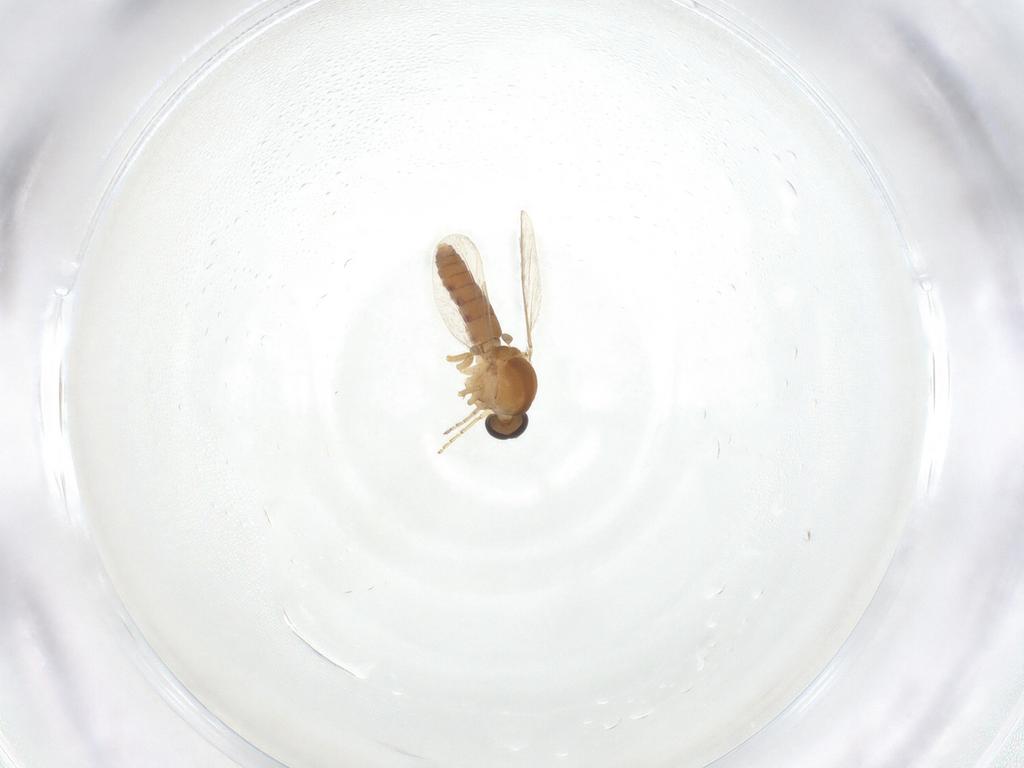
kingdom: Animalia
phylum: Arthropoda
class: Insecta
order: Diptera
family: Ceratopogonidae
